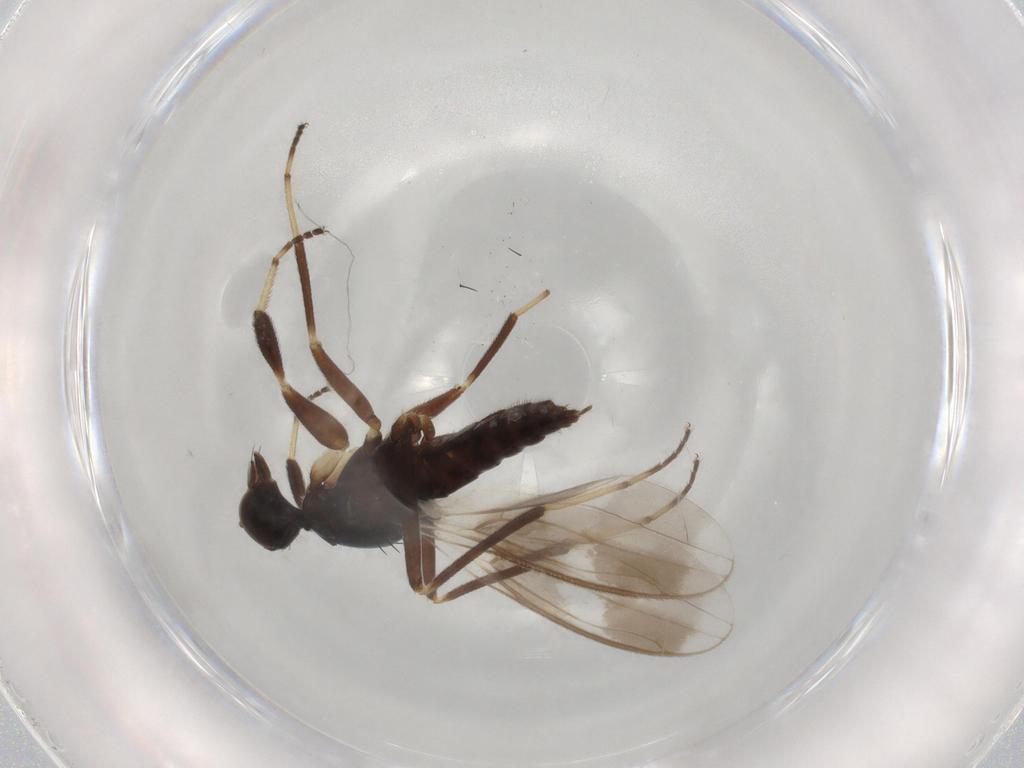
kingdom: Animalia
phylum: Arthropoda
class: Insecta
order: Diptera
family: Hybotidae
